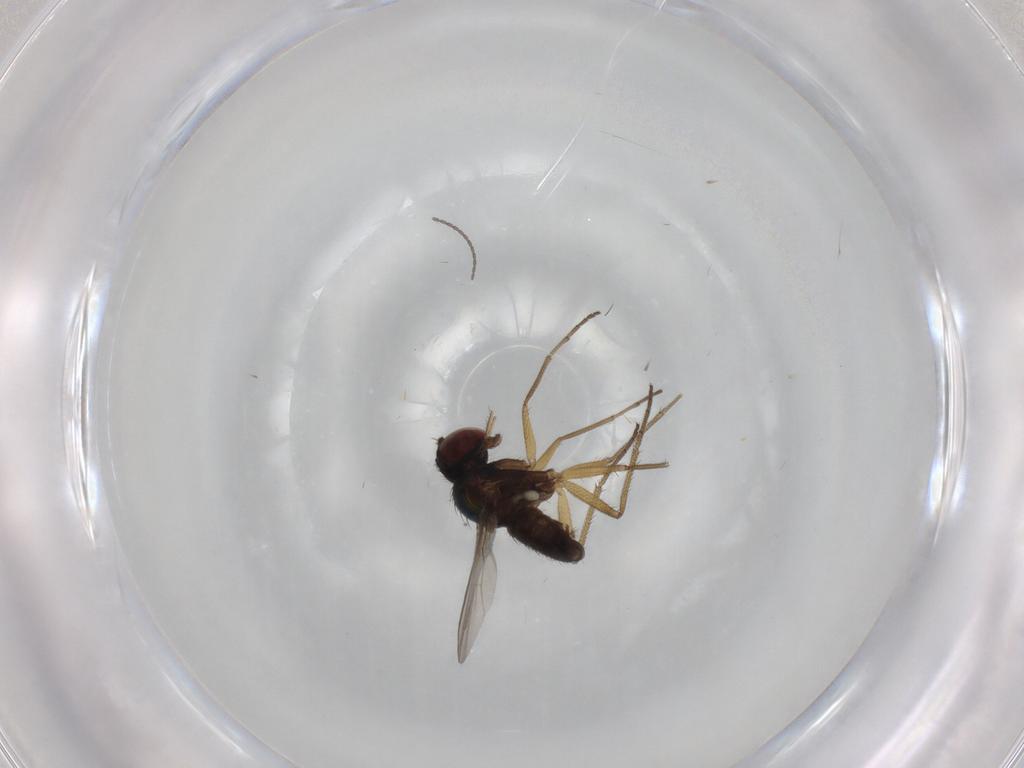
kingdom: Animalia
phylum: Arthropoda
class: Insecta
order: Diptera
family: Dolichopodidae
